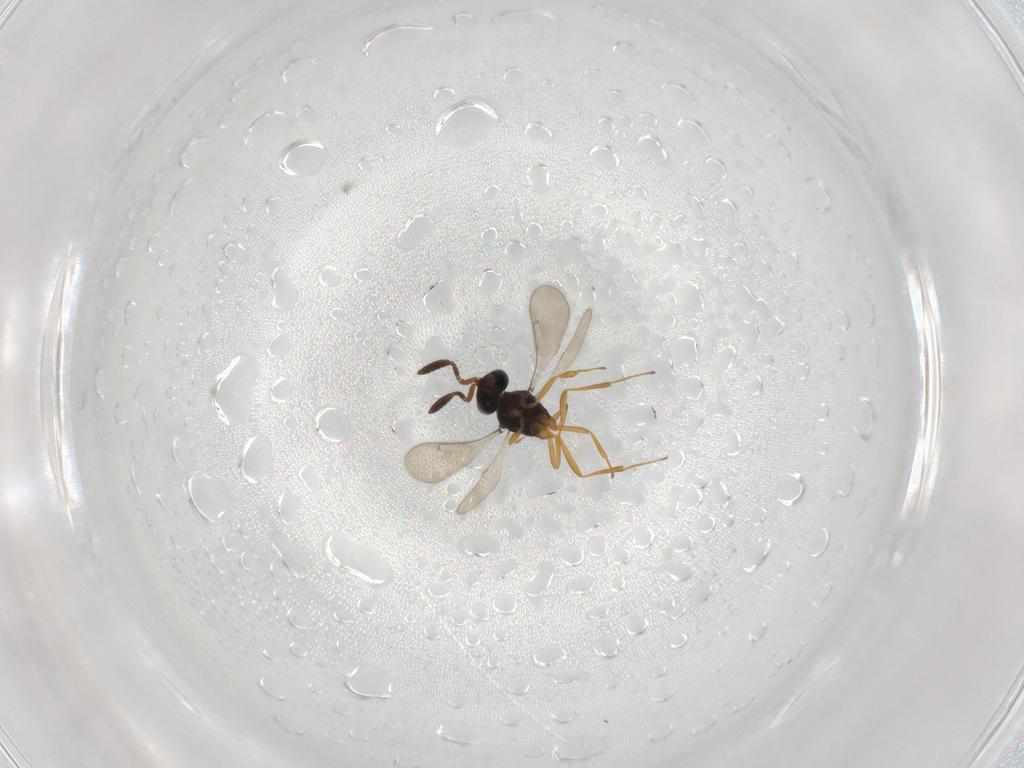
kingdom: Animalia
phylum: Arthropoda
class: Insecta
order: Hymenoptera
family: Scelionidae
